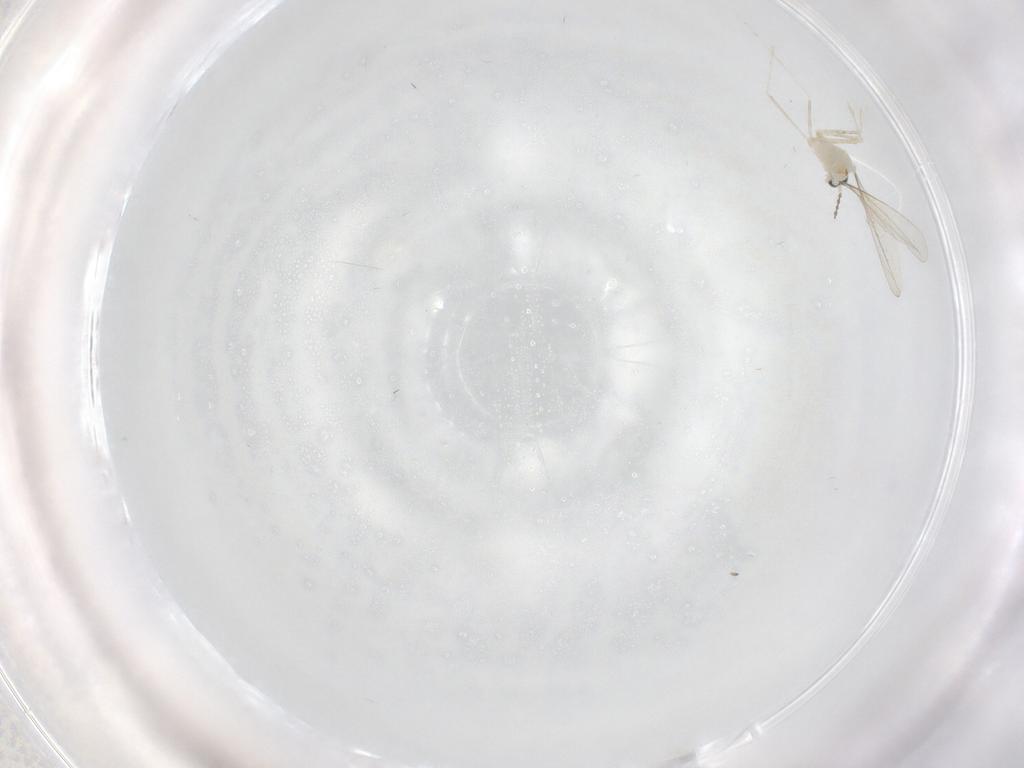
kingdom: Animalia
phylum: Arthropoda
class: Insecta
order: Diptera
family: Cecidomyiidae
